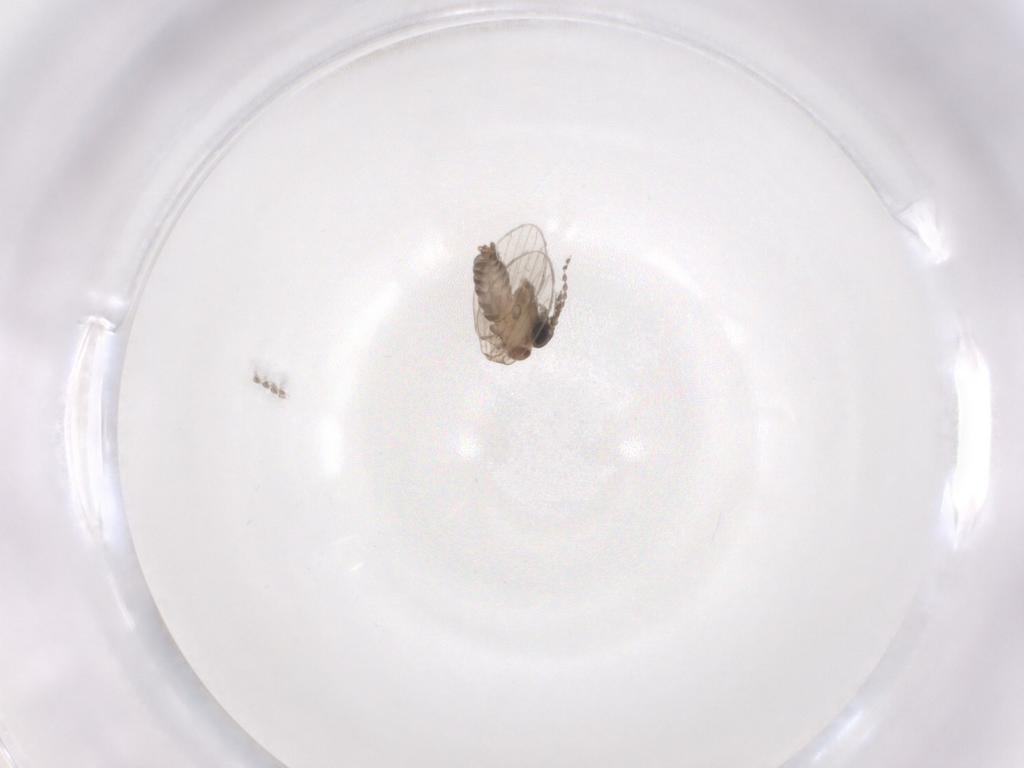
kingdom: Animalia
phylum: Arthropoda
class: Insecta
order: Diptera
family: Cecidomyiidae
